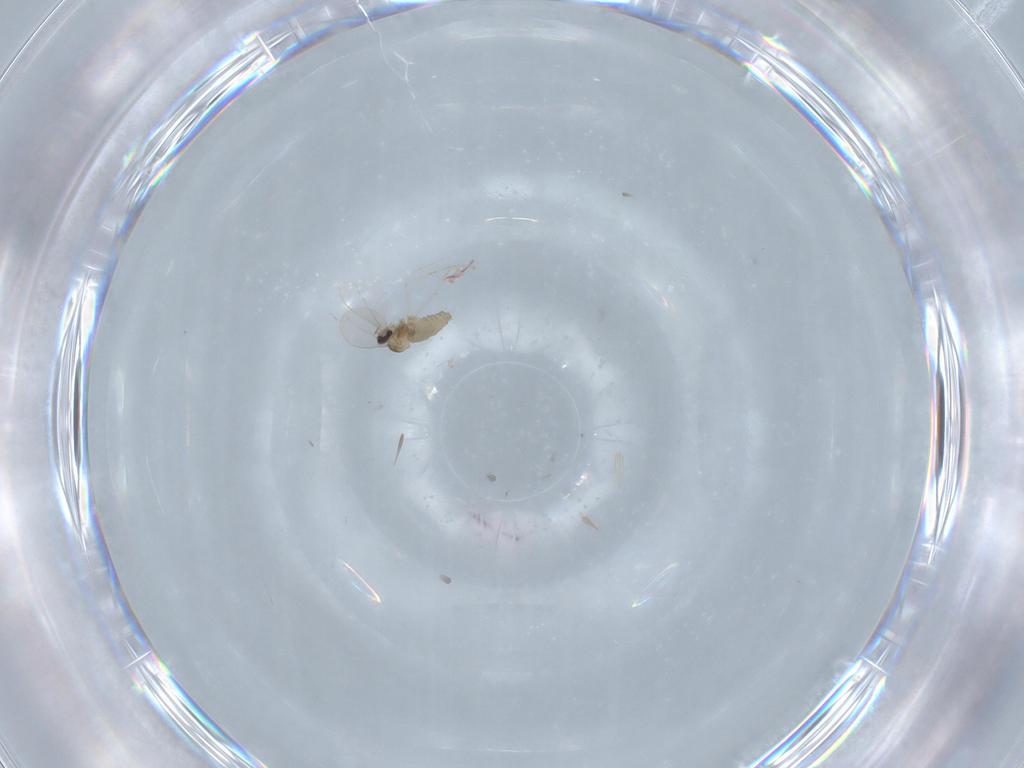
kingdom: Animalia
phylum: Arthropoda
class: Insecta
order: Diptera
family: Cecidomyiidae
